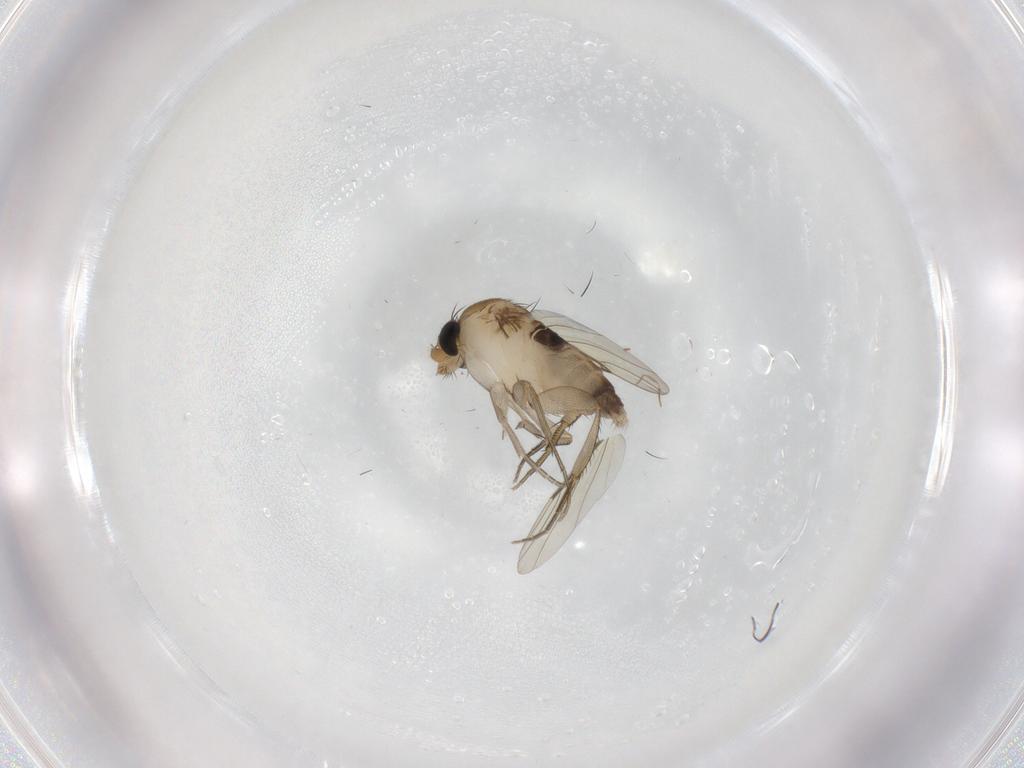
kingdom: Animalia
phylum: Arthropoda
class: Insecta
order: Diptera
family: Phoridae
